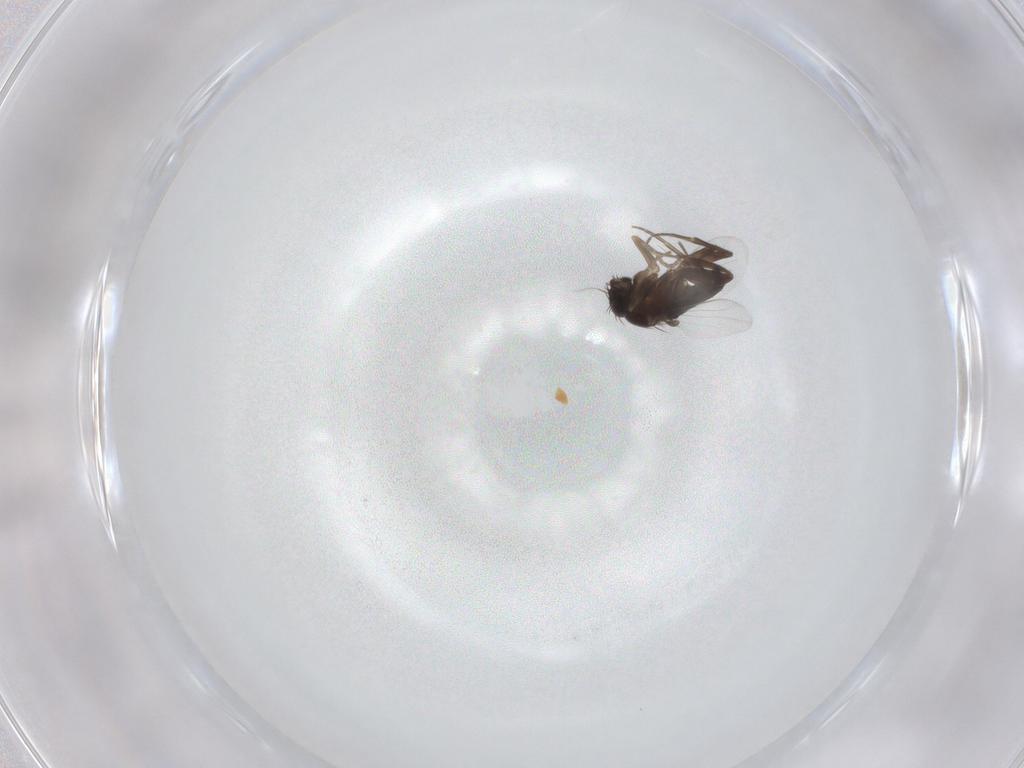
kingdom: Animalia
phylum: Arthropoda
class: Insecta
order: Diptera
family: Phoridae
